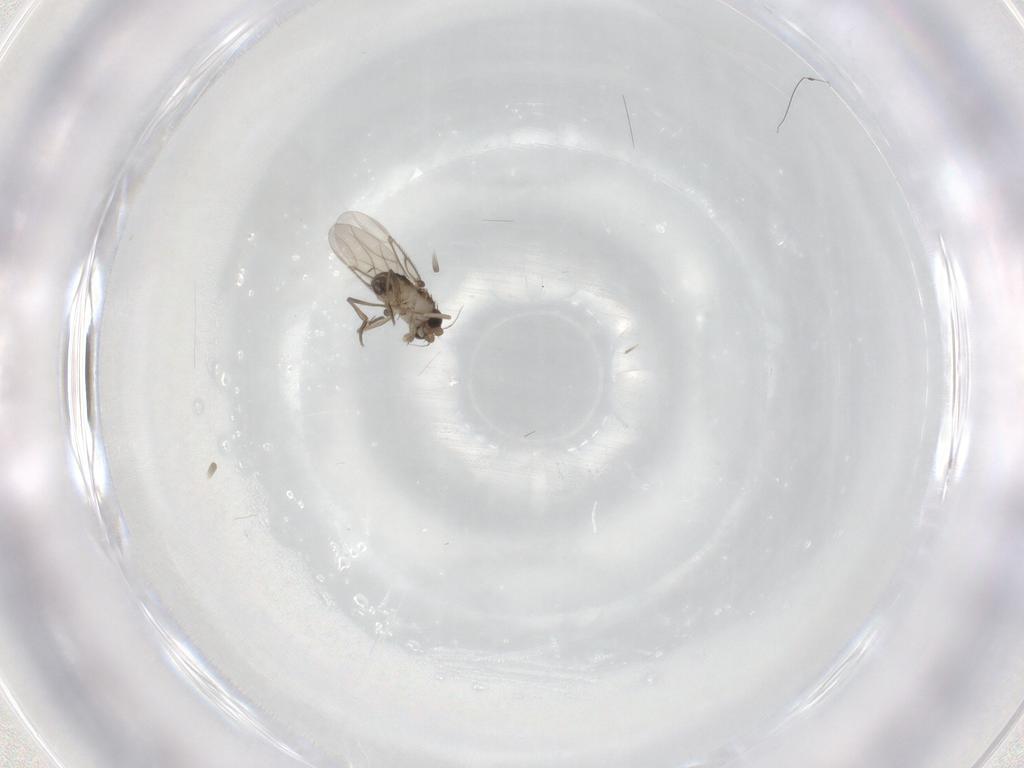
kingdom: Animalia
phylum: Arthropoda
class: Insecta
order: Diptera
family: Phoridae
